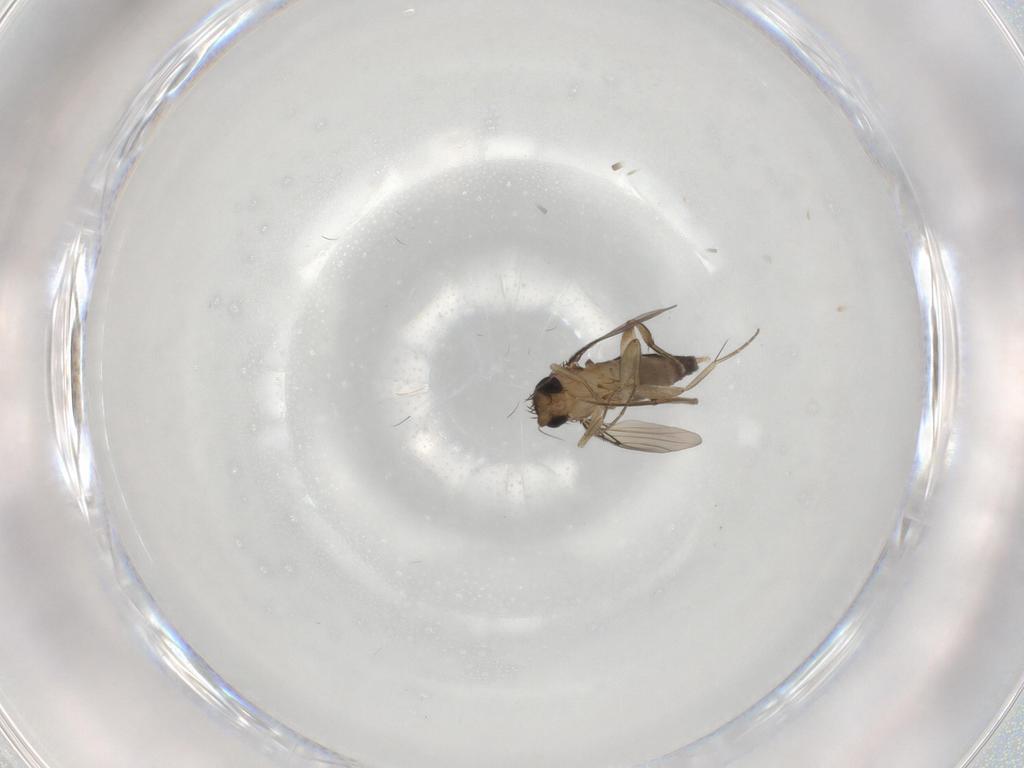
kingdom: Animalia
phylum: Arthropoda
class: Insecta
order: Diptera
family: Phoridae
